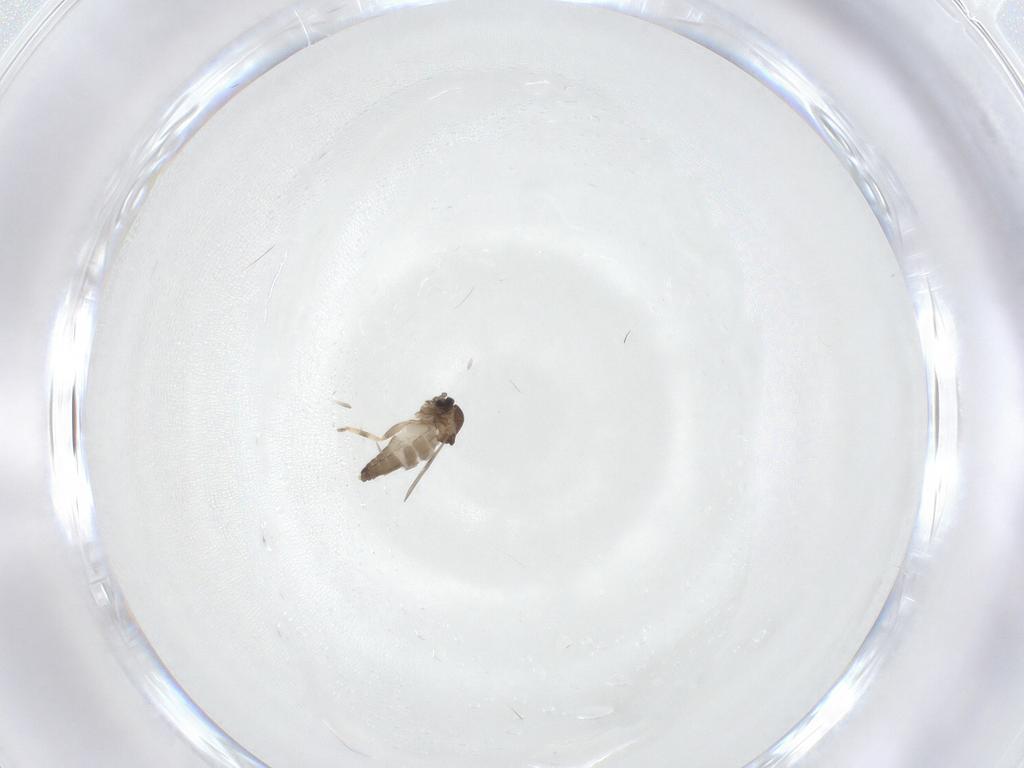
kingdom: Animalia
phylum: Arthropoda
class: Insecta
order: Diptera
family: Ceratopogonidae
